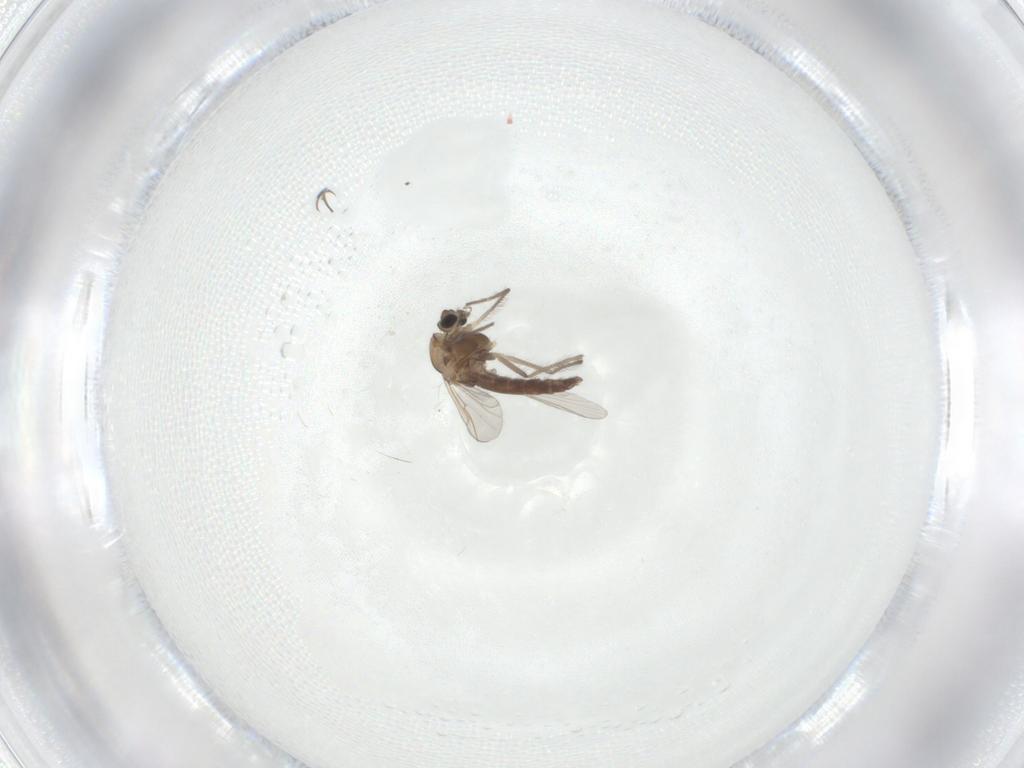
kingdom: Animalia
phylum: Arthropoda
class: Insecta
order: Diptera
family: Chironomidae
